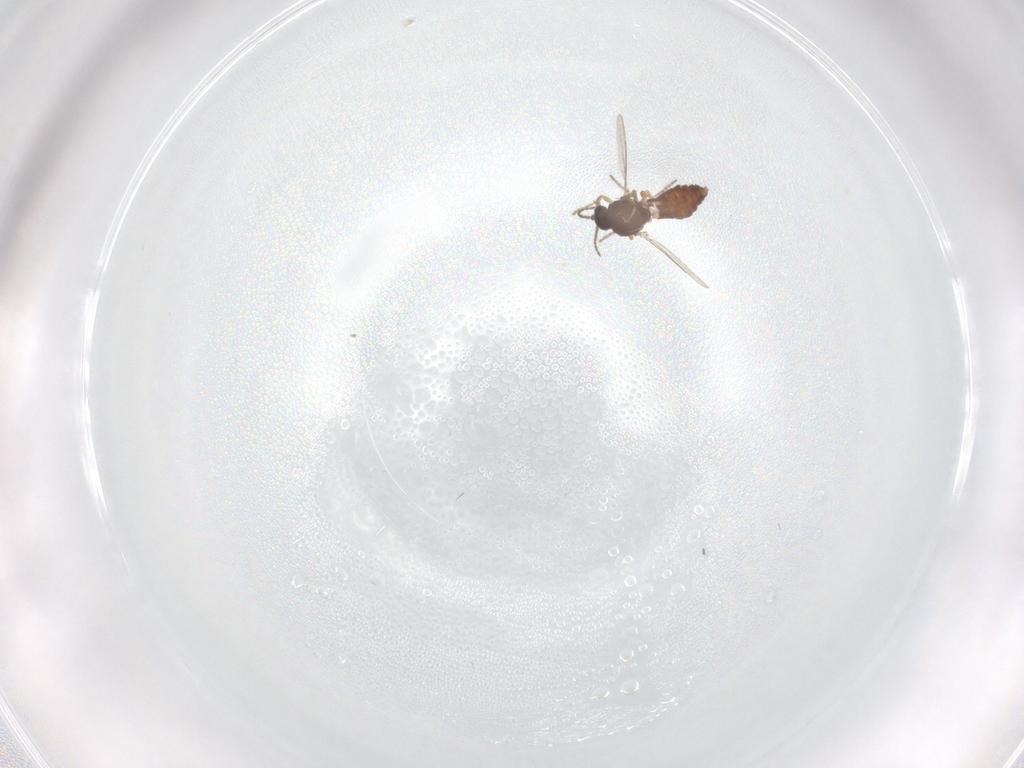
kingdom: Animalia
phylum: Arthropoda
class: Insecta
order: Diptera
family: Ceratopogonidae
